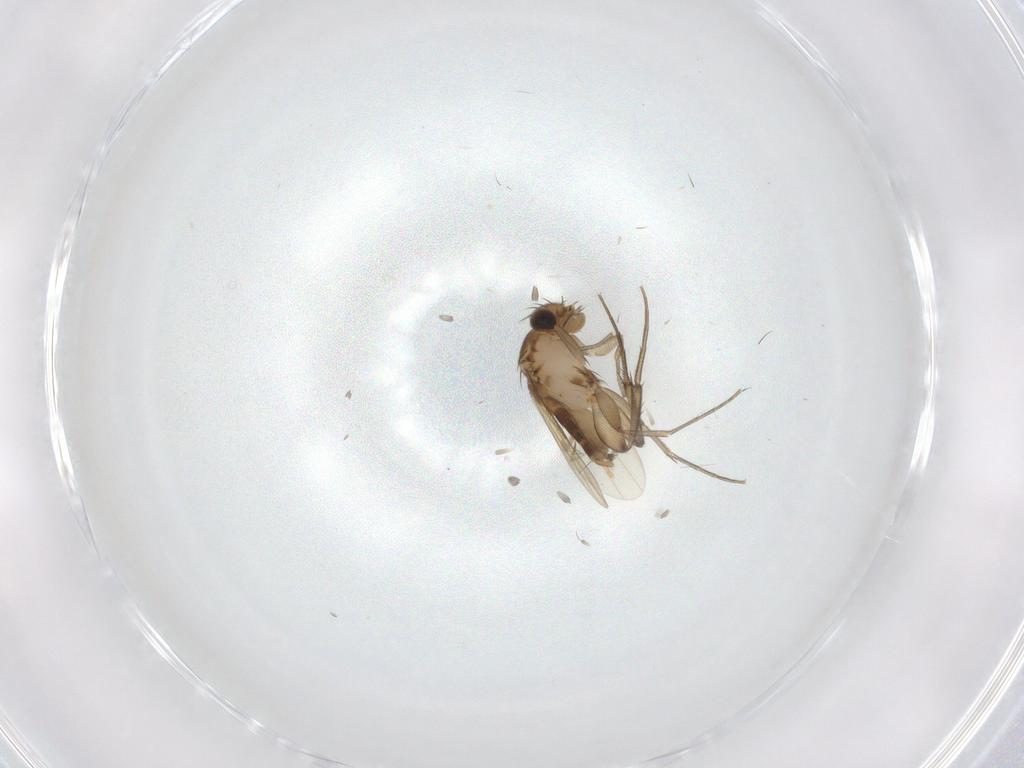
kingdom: Animalia
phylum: Arthropoda
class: Insecta
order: Diptera
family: Phoridae
